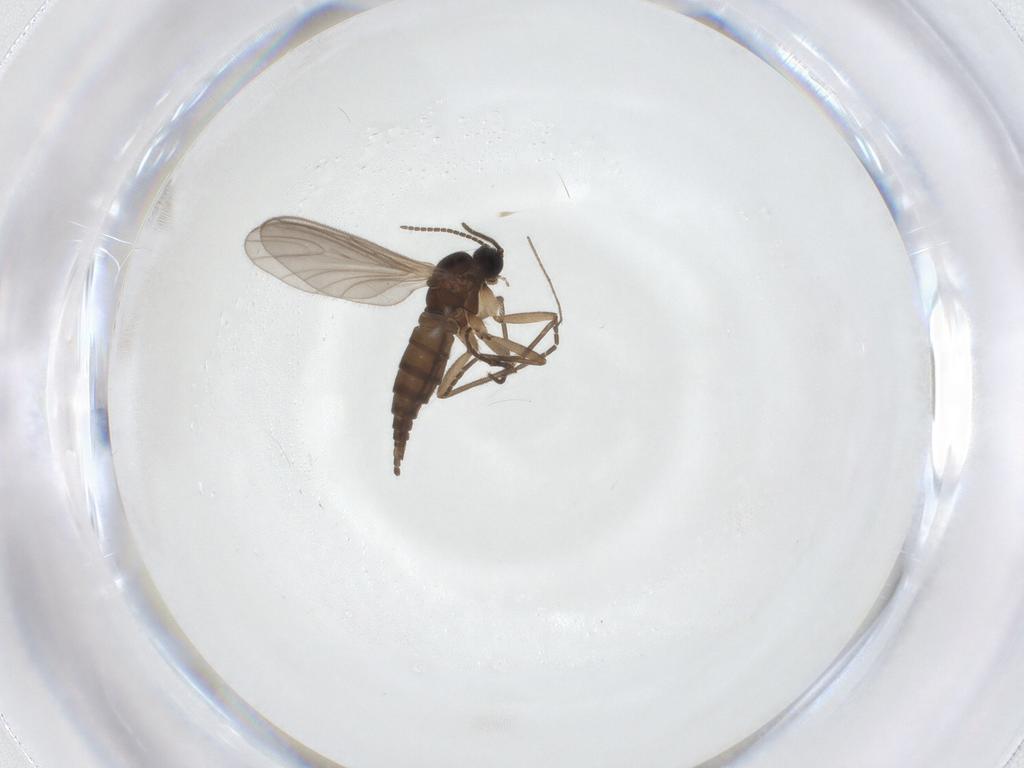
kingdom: Animalia
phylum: Arthropoda
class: Insecta
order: Diptera
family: Sciaridae
